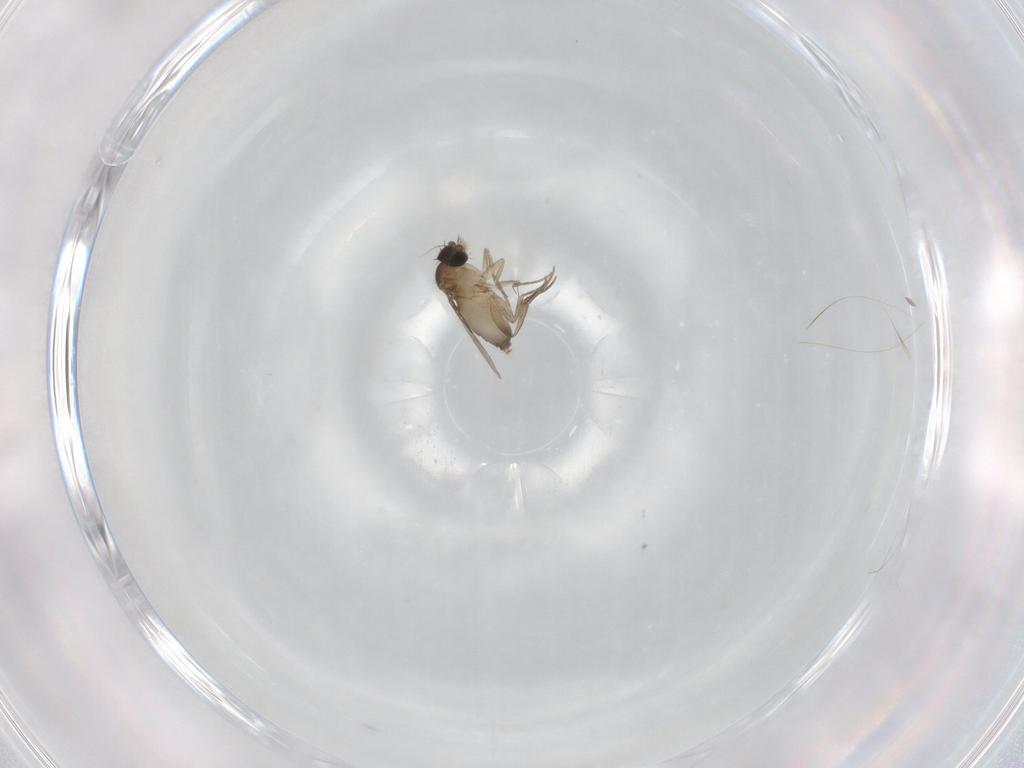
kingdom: Animalia
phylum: Arthropoda
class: Insecta
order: Diptera
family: Phoridae
